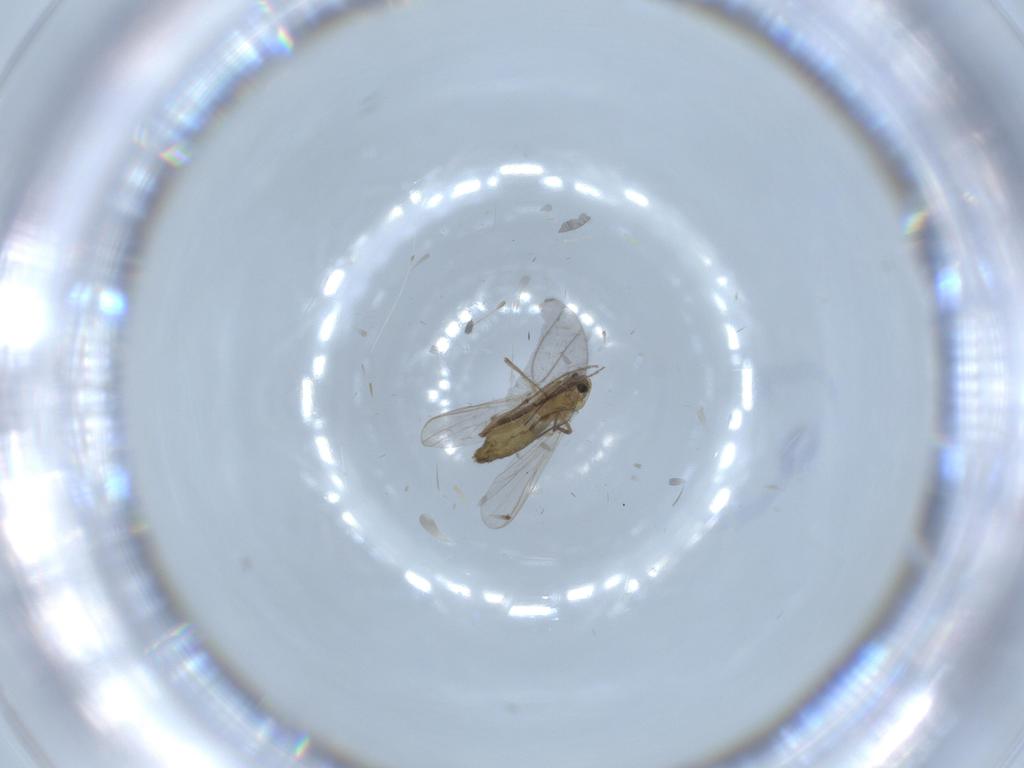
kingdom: Animalia
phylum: Arthropoda
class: Insecta
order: Diptera
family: Chironomidae
